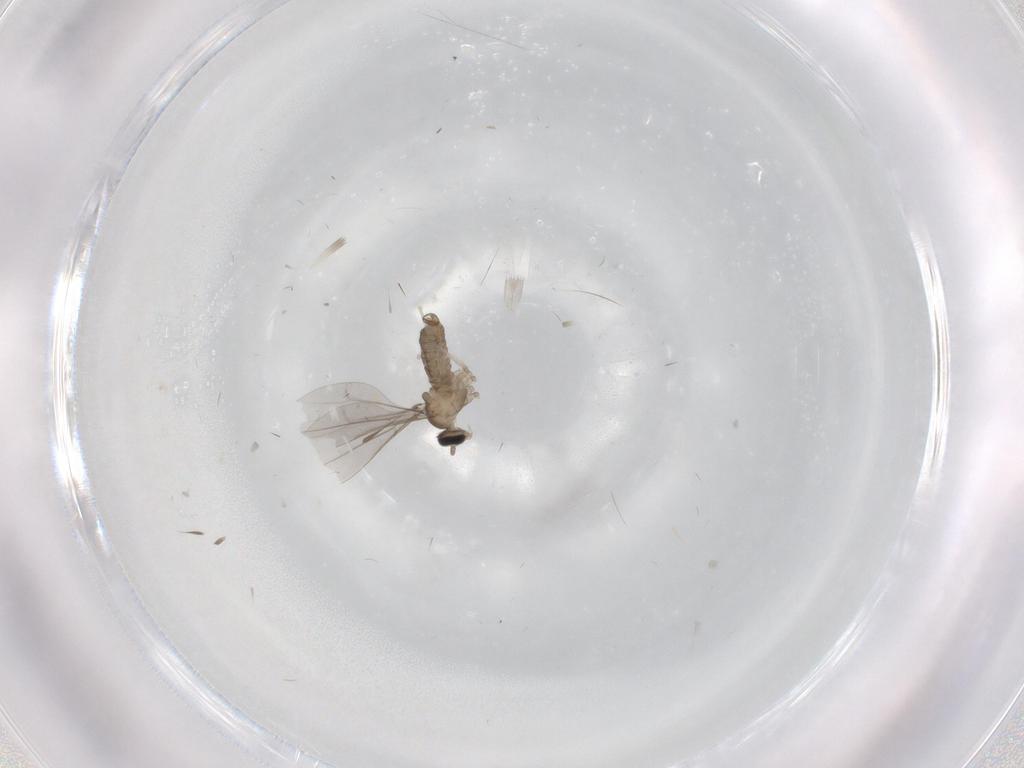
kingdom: Animalia
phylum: Arthropoda
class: Insecta
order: Diptera
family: Cecidomyiidae
